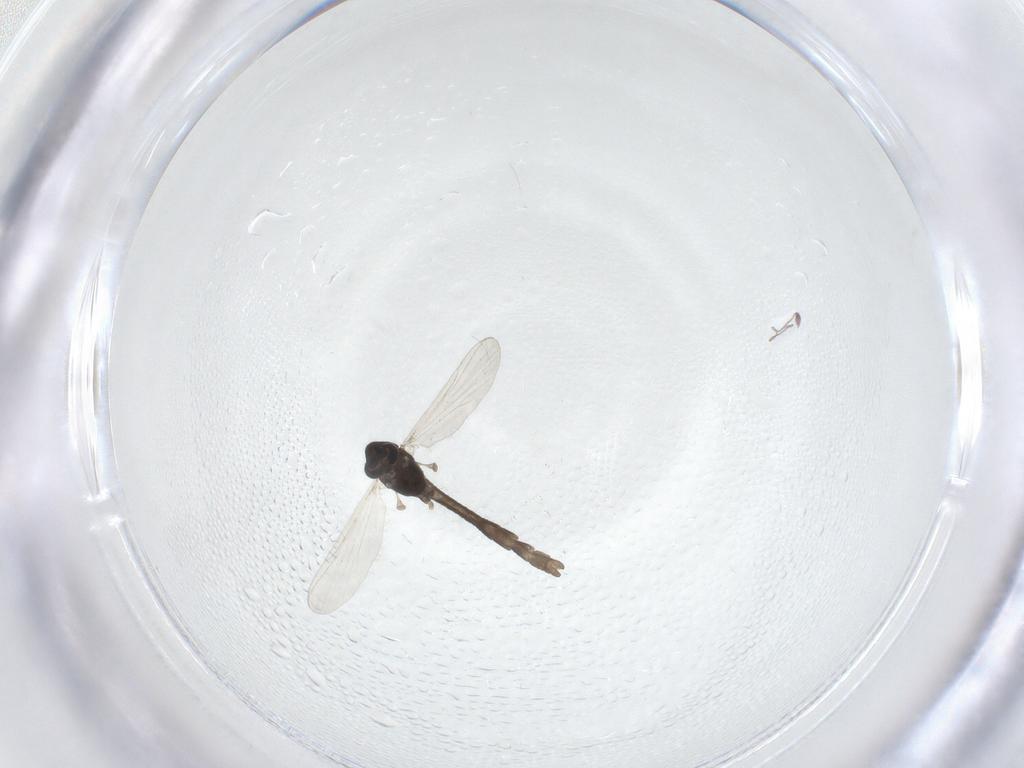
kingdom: Animalia
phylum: Arthropoda
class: Insecta
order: Diptera
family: Chironomidae
